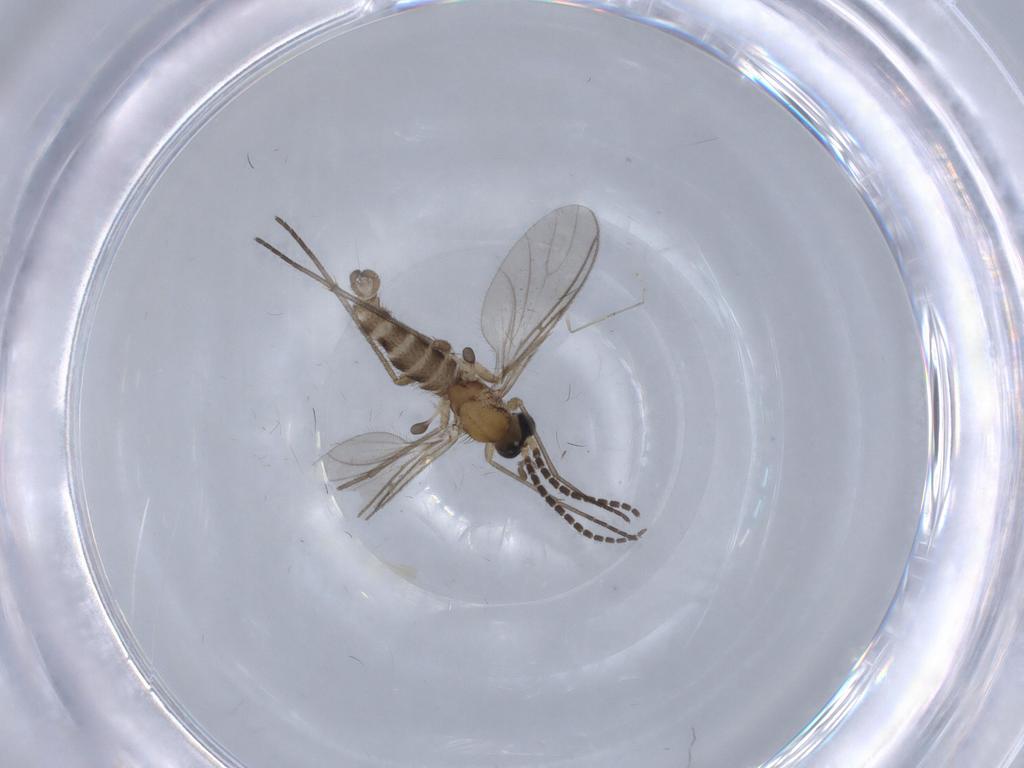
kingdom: Animalia
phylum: Arthropoda
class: Insecta
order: Diptera
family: Sciaridae
